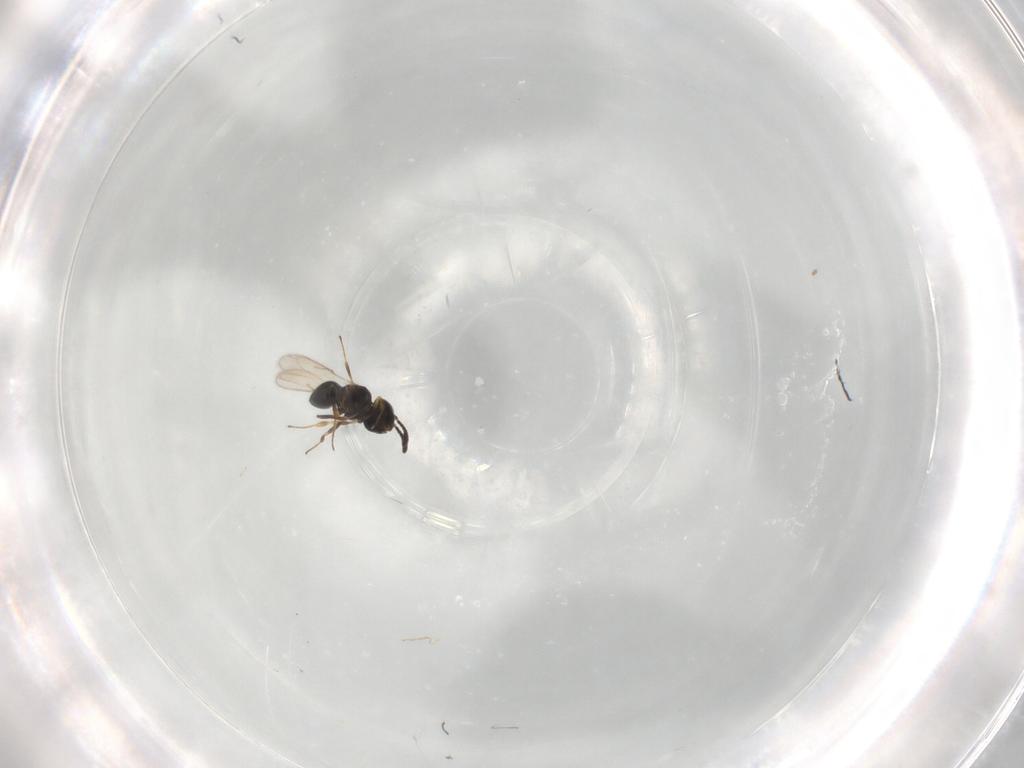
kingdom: Animalia
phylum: Arthropoda
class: Insecta
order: Hymenoptera
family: Scelionidae
